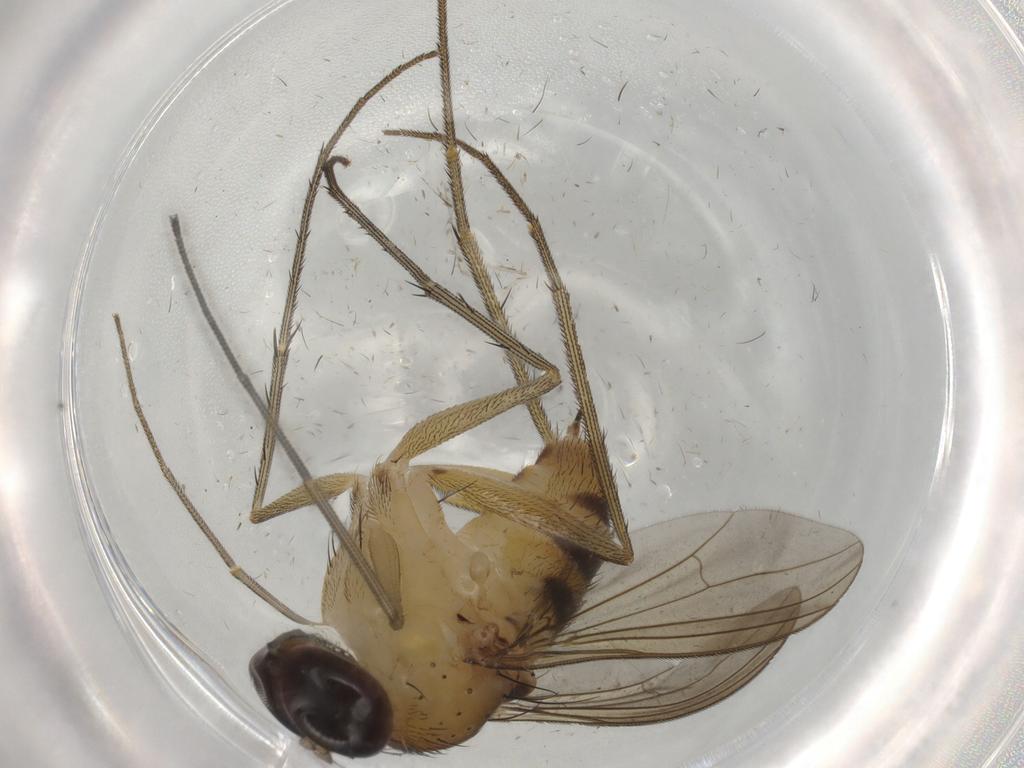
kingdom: Animalia
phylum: Arthropoda
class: Insecta
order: Diptera
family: Dolichopodidae
